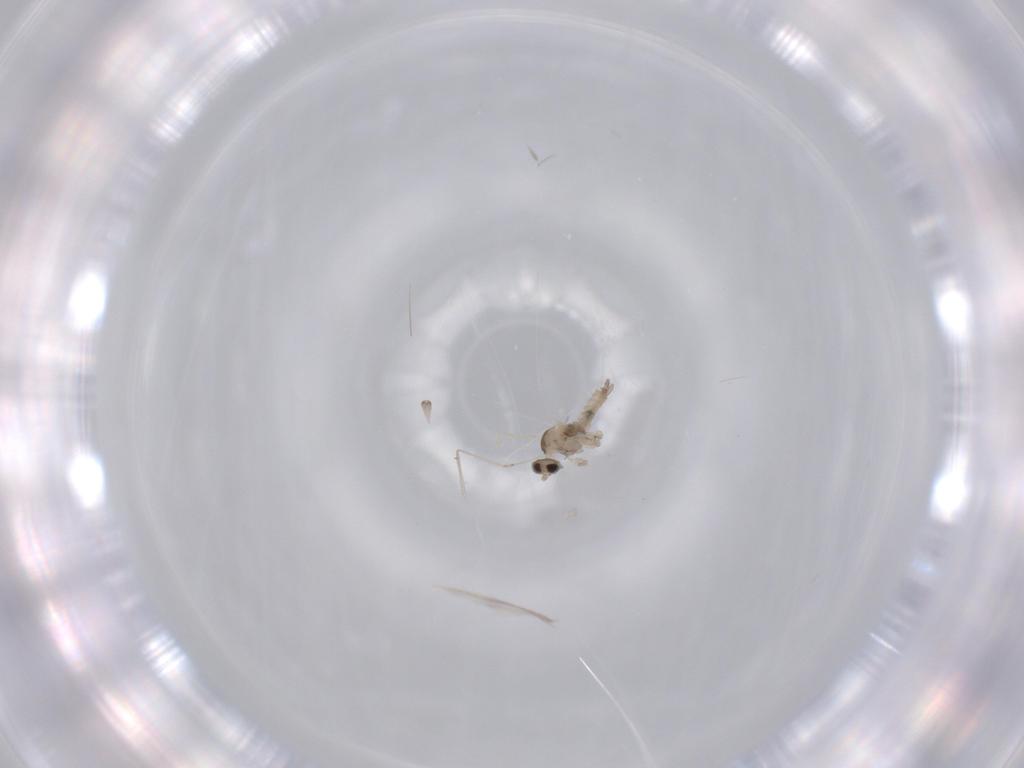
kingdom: Animalia
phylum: Arthropoda
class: Insecta
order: Diptera
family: Cecidomyiidae
